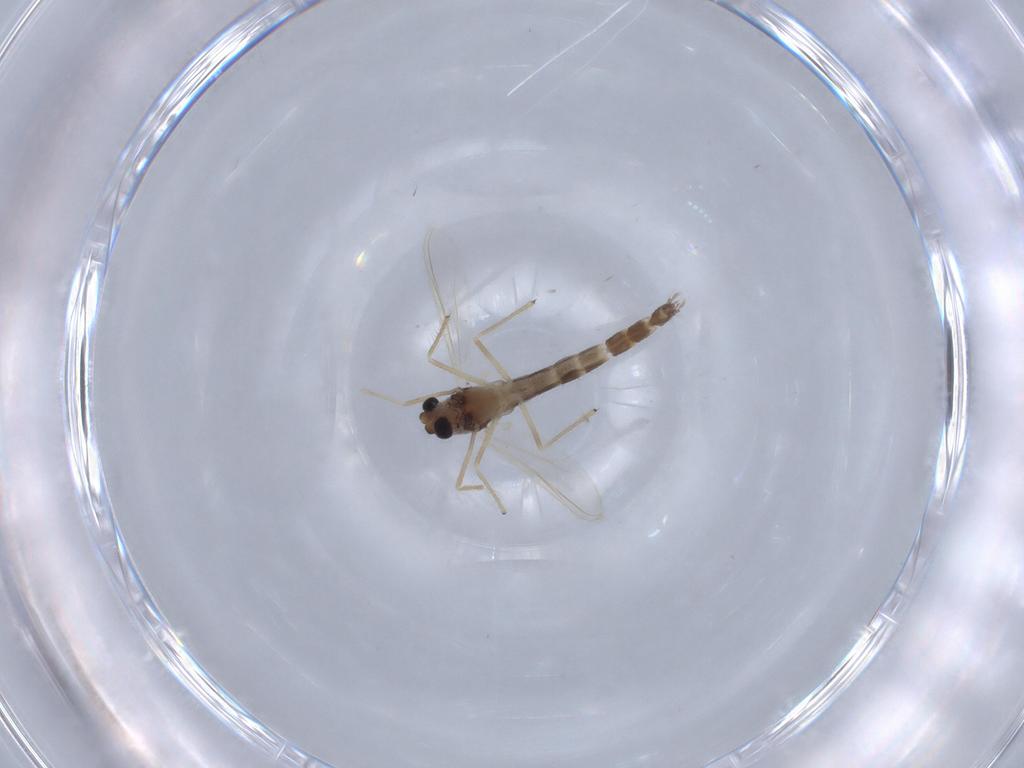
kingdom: Animalia
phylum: Arthropoda
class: Insecta
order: Diptera
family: Chironomidae
